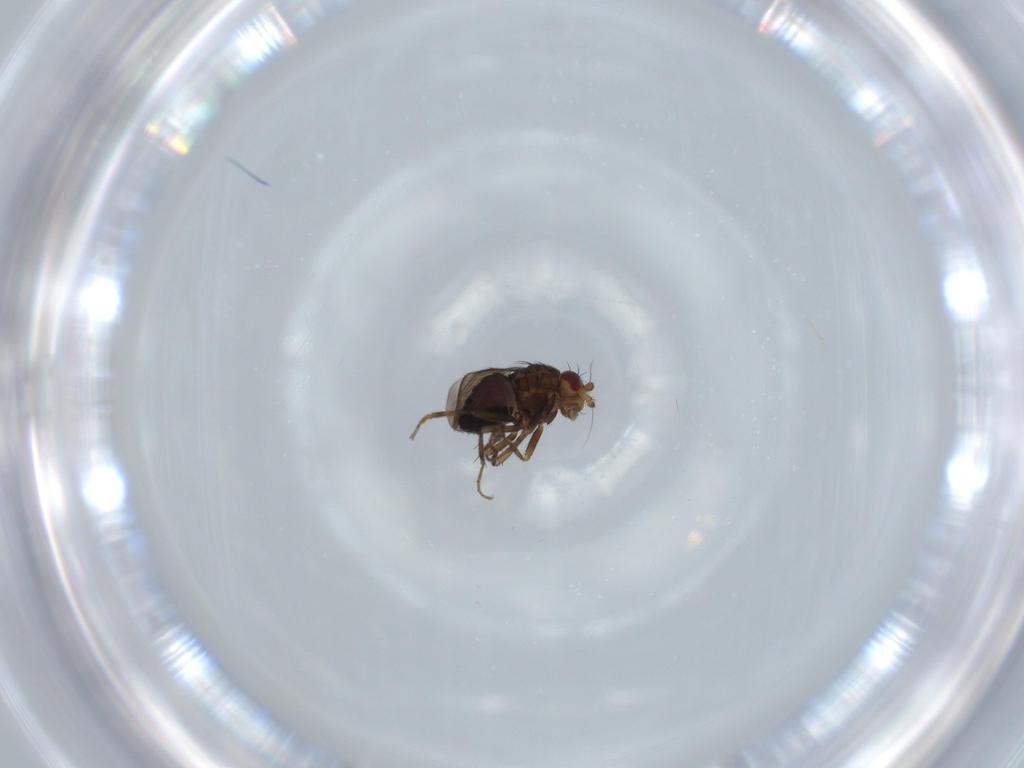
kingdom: Animalia
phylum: Arthropoda
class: Insecta
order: Diptera
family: Sphaeroceridae
